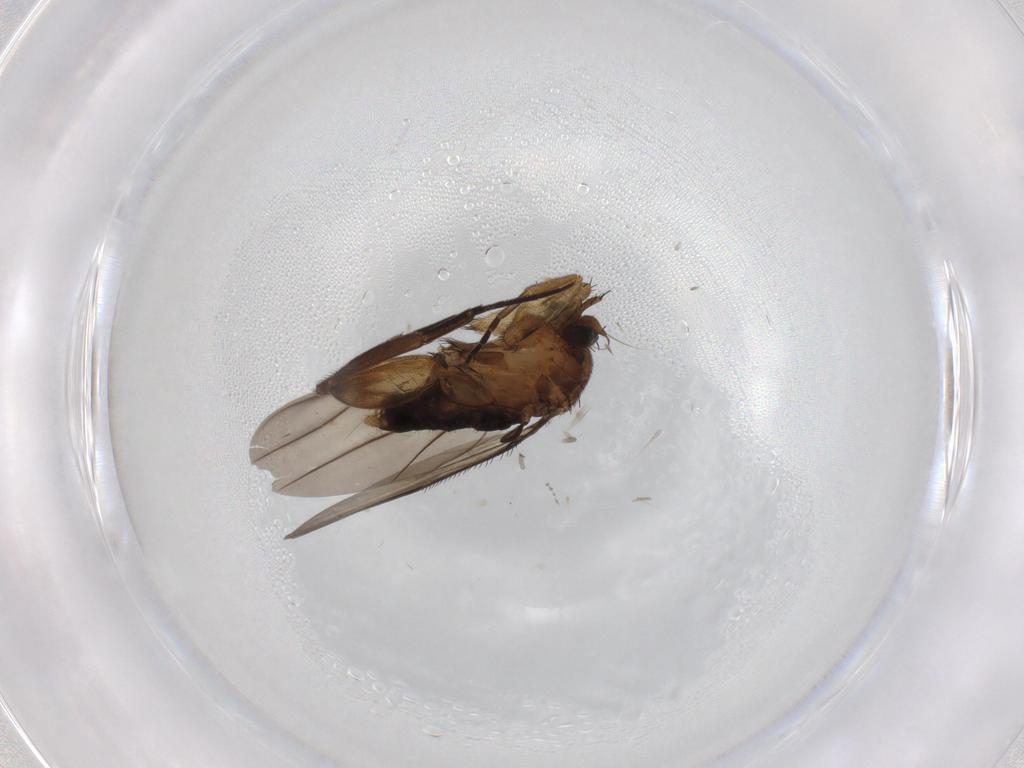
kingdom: Animalia
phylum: Arthropoda
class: Insecta
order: Diptera
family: Phoridae
